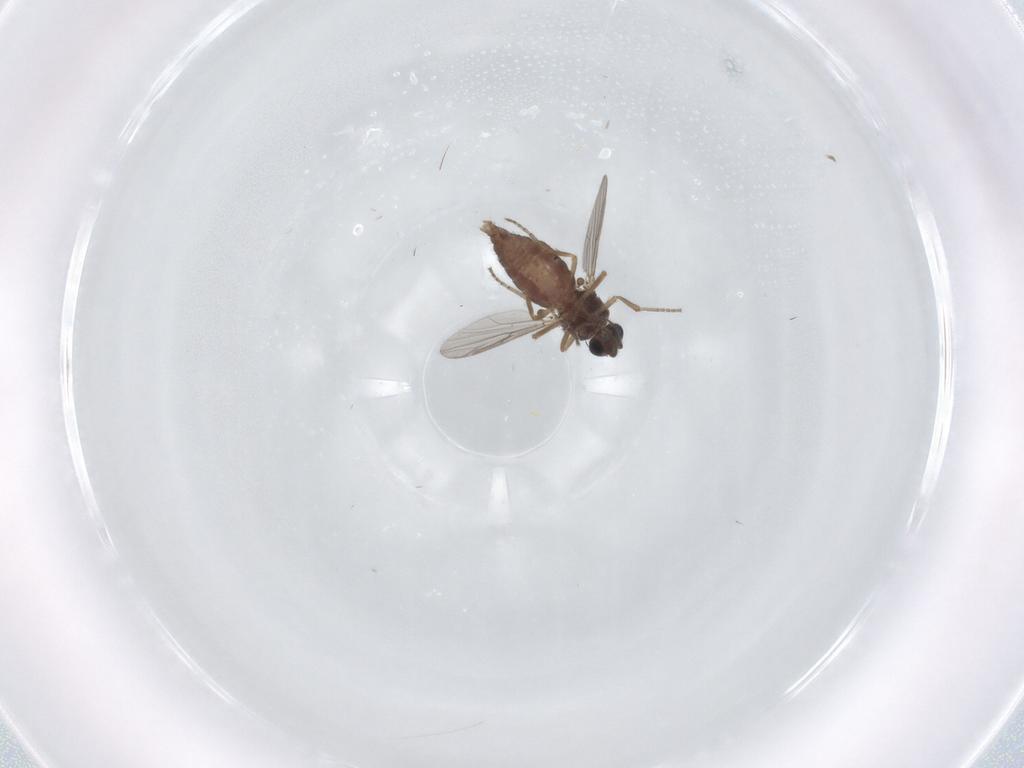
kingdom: Animalia
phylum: Arthropoda
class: Insecta
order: Diptera
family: Ceratopogonidae
